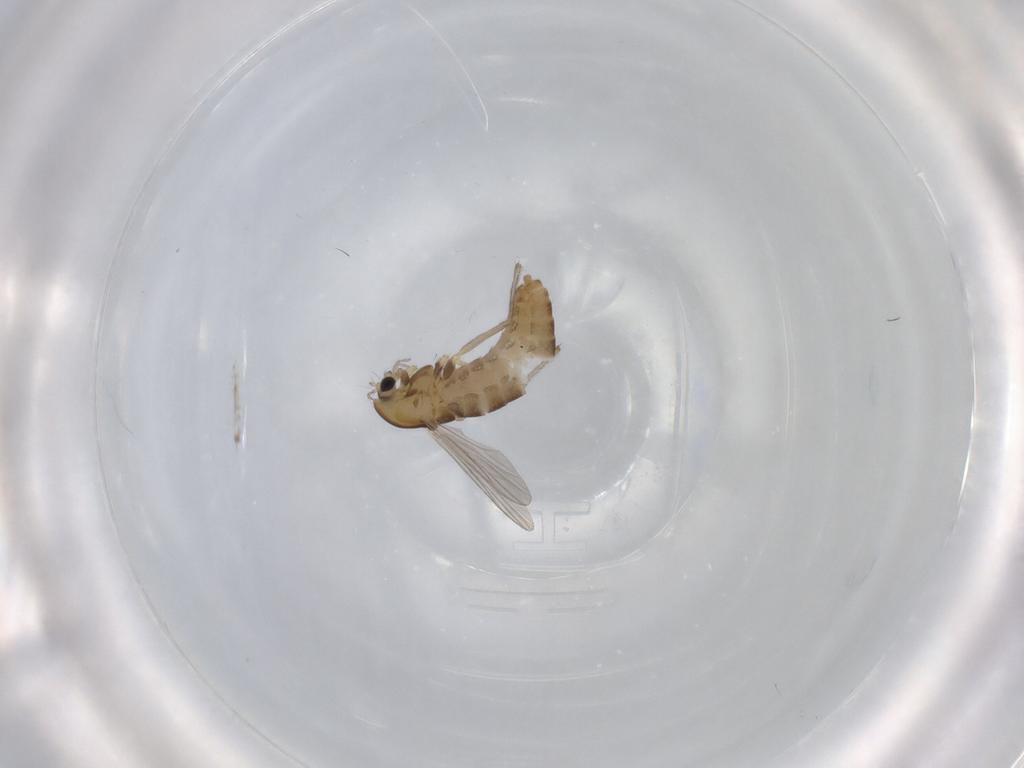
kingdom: Animalia
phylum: Arthropoda
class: Insecta
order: Diptera
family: Chironomidae
